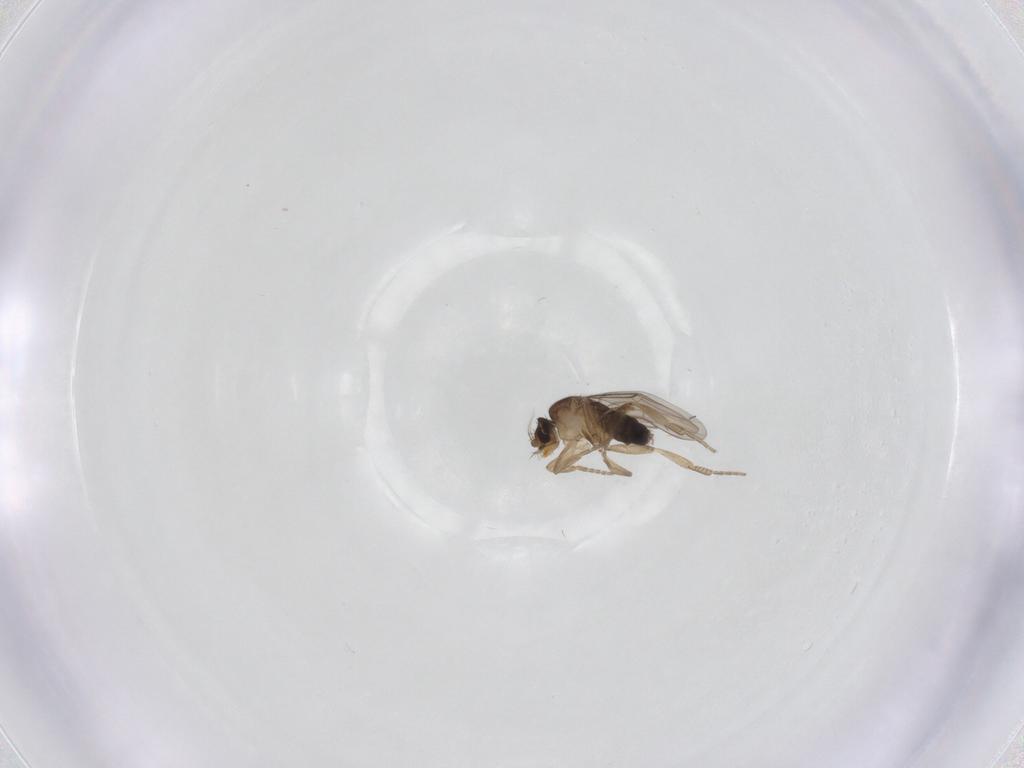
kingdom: Animalia
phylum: Arthropoda
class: Insecta
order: Diptera
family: Phoridae
